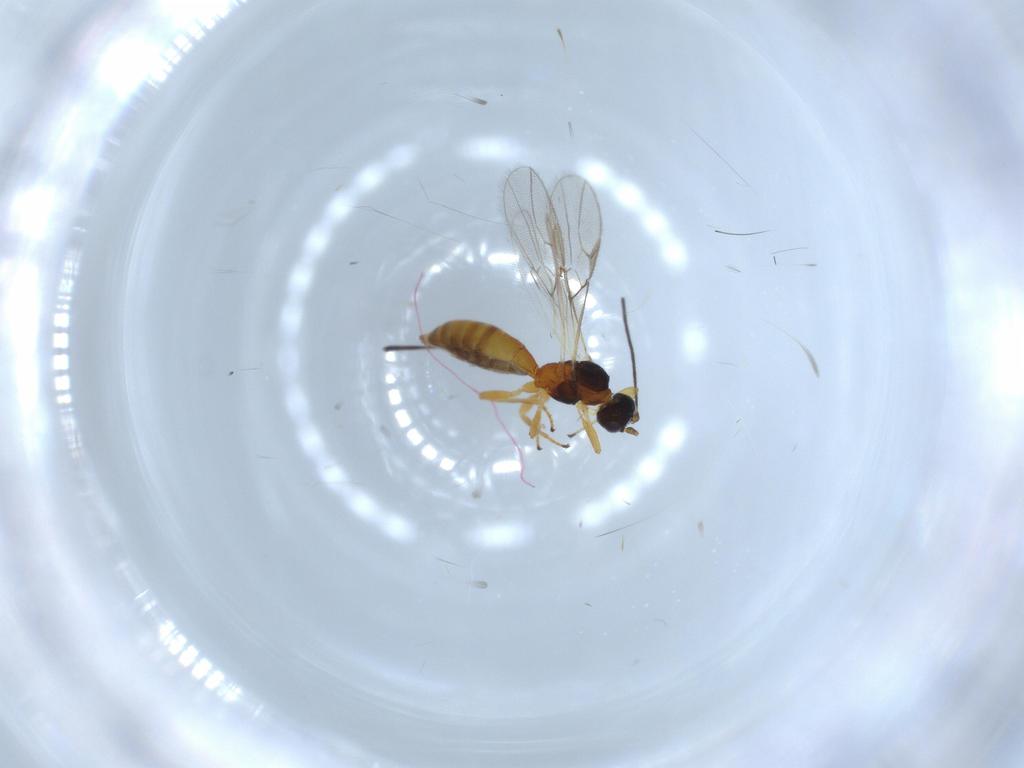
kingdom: Animalia
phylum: Arthropoda
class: Insecta
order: Hymenoptera
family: Braconidae
